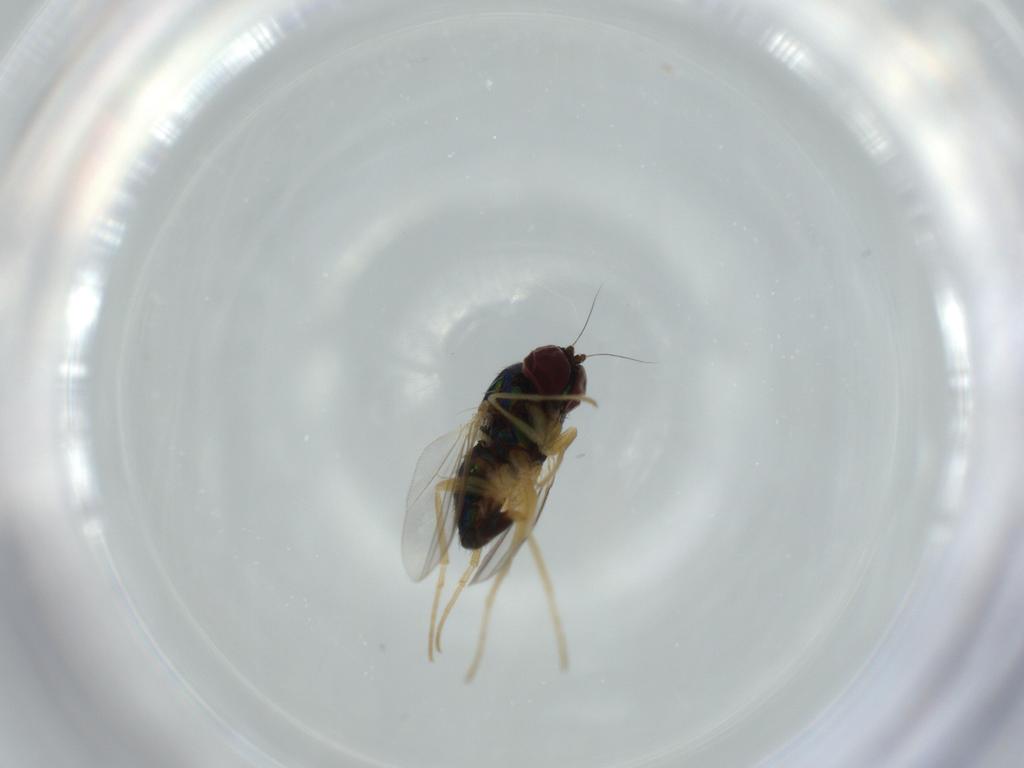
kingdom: Animalia
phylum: Arthropoda
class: Insecta
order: Diptera
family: Dolichopodidae
